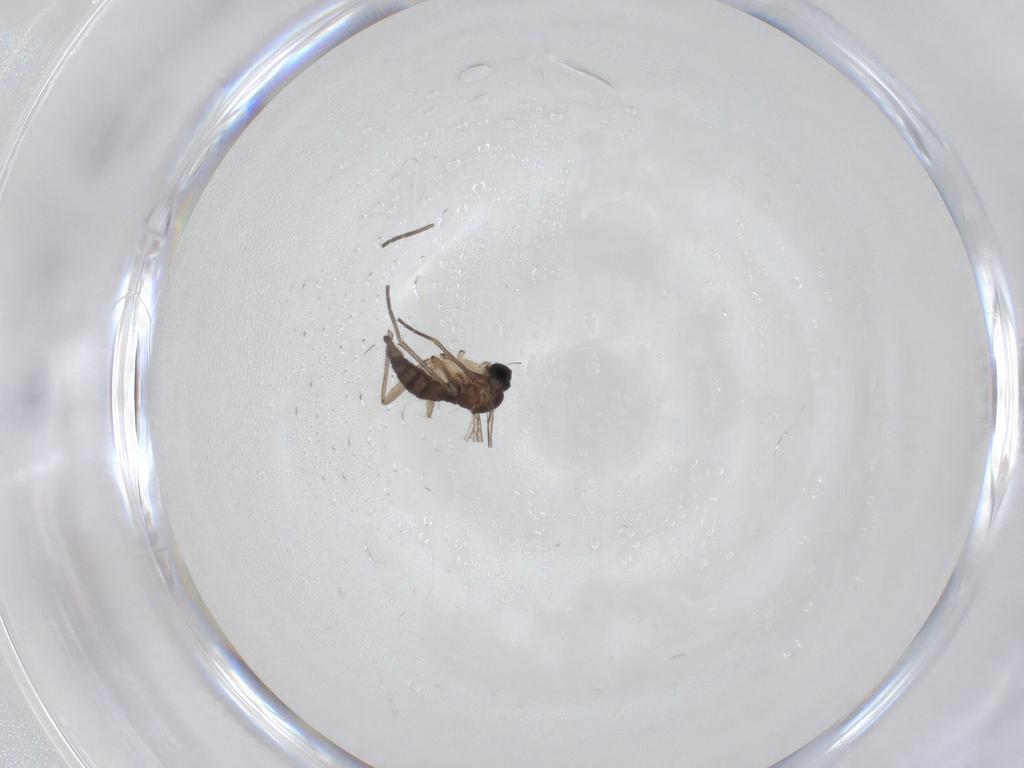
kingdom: Animalia
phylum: Arthropoda
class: Insecta
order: Diptera
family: Sciaridae
